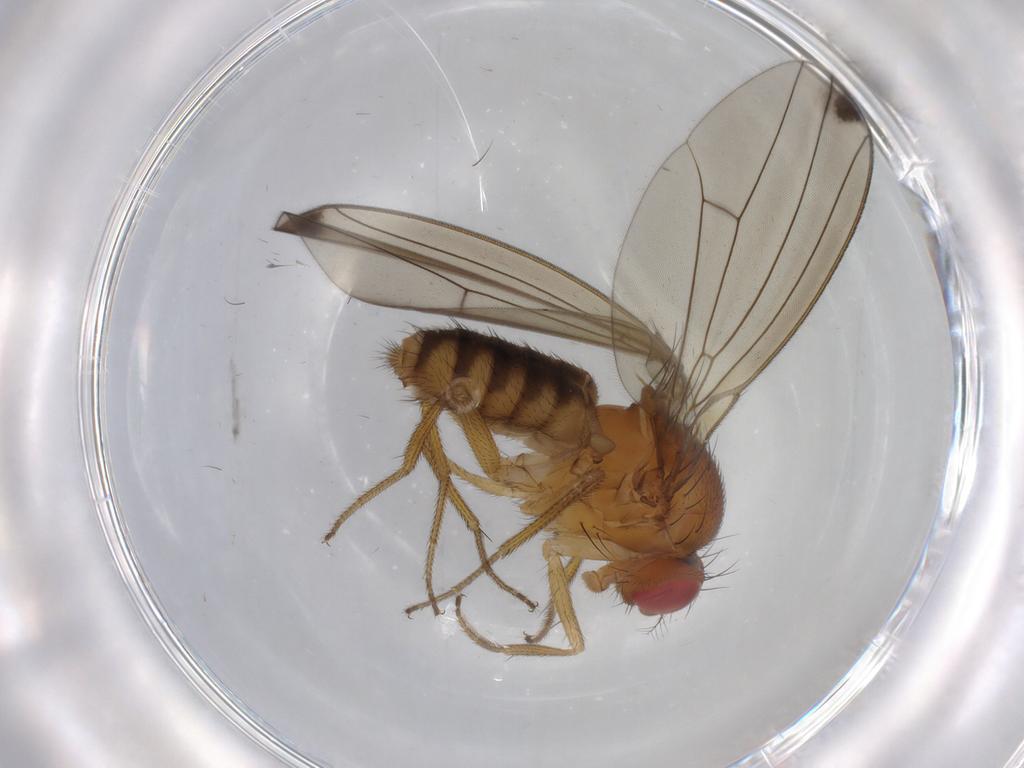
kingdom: Animalia
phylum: Arthropoda
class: Insecta
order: Diptera
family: Drosophilidae
